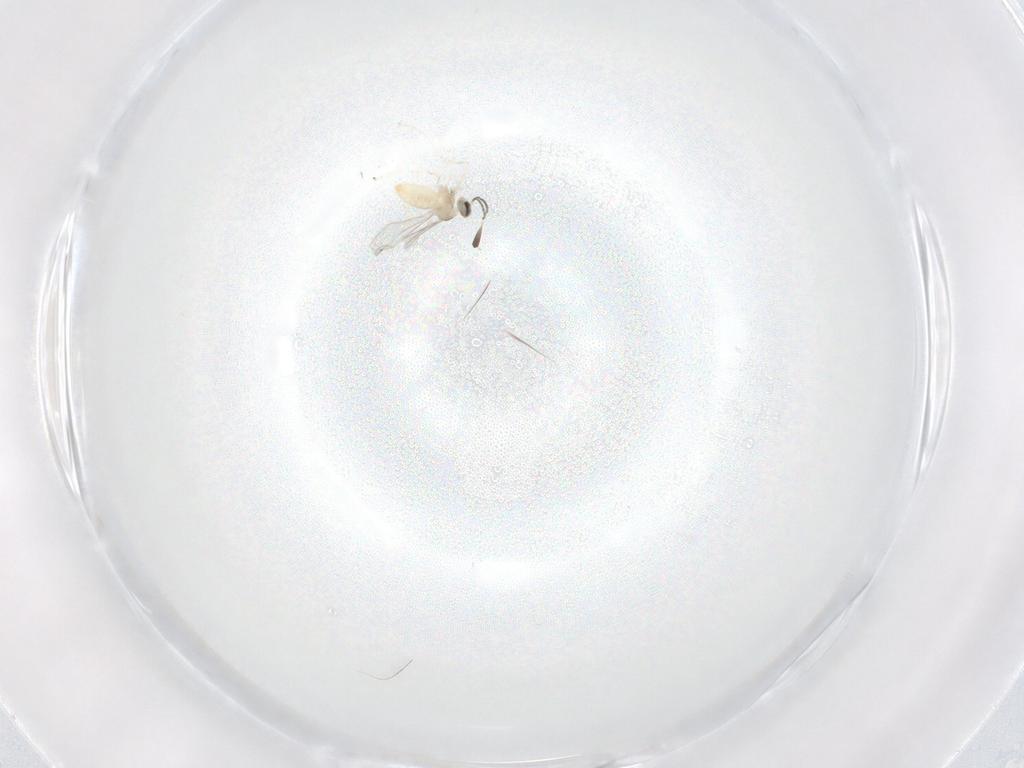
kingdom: Animalia
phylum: Arthropoda
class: Insecta
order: Diptera
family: Cecidomyiidae
